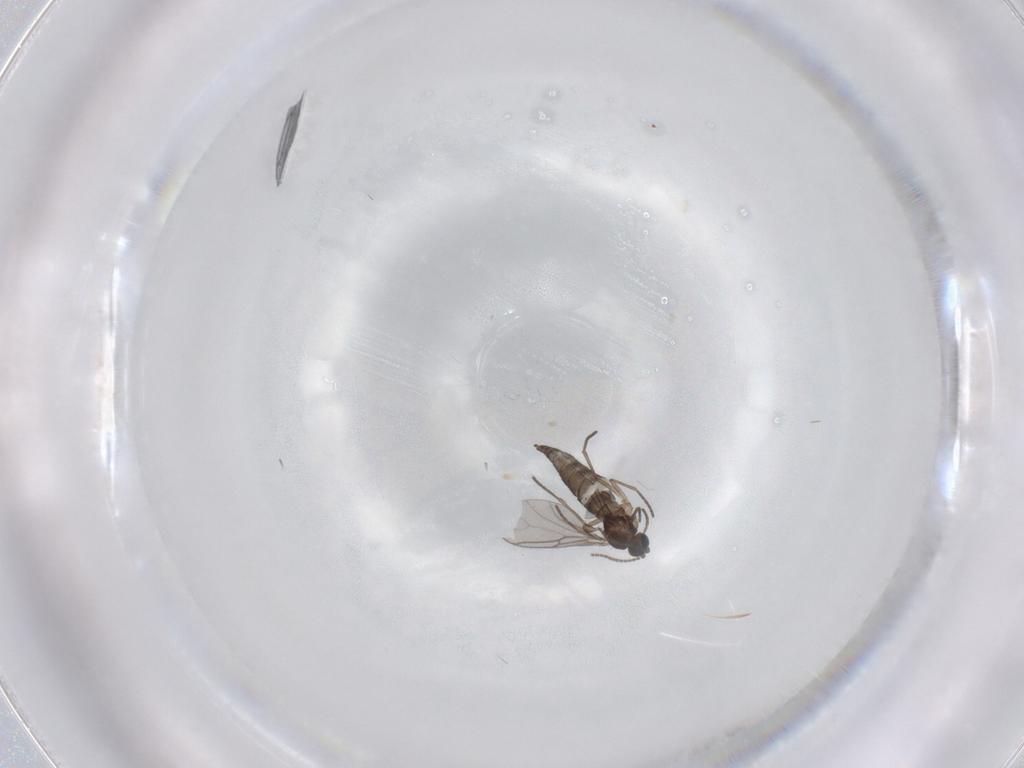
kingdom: Animalia
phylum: Arthropoda
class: Insecta
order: Diptera
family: Sciaridae
